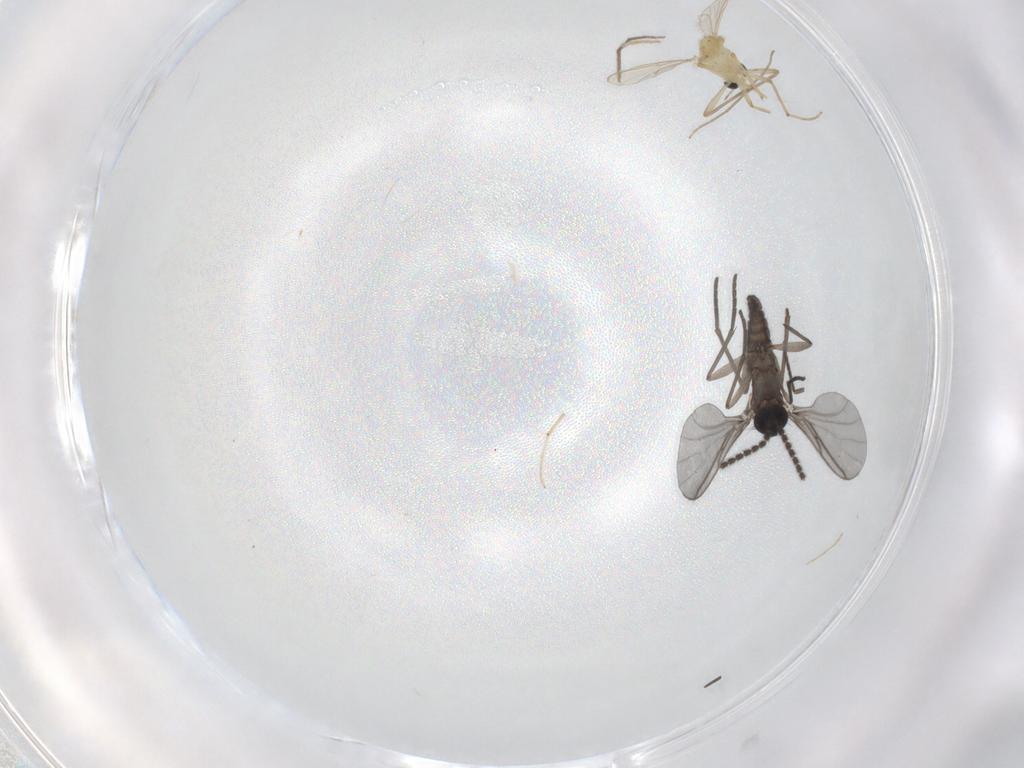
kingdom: Animalia
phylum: Arthropoda
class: Insecta
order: Diptera
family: Chironomidae
